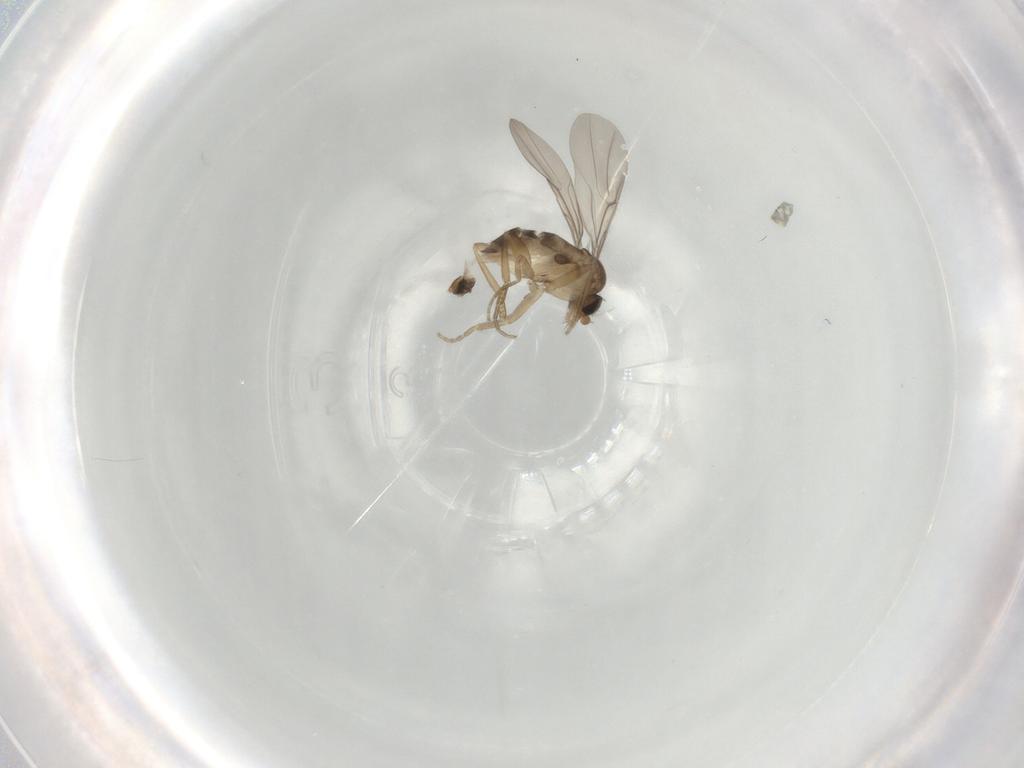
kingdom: Animalia
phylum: Arthropoda
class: Insecta
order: Diptera
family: Phoridae
